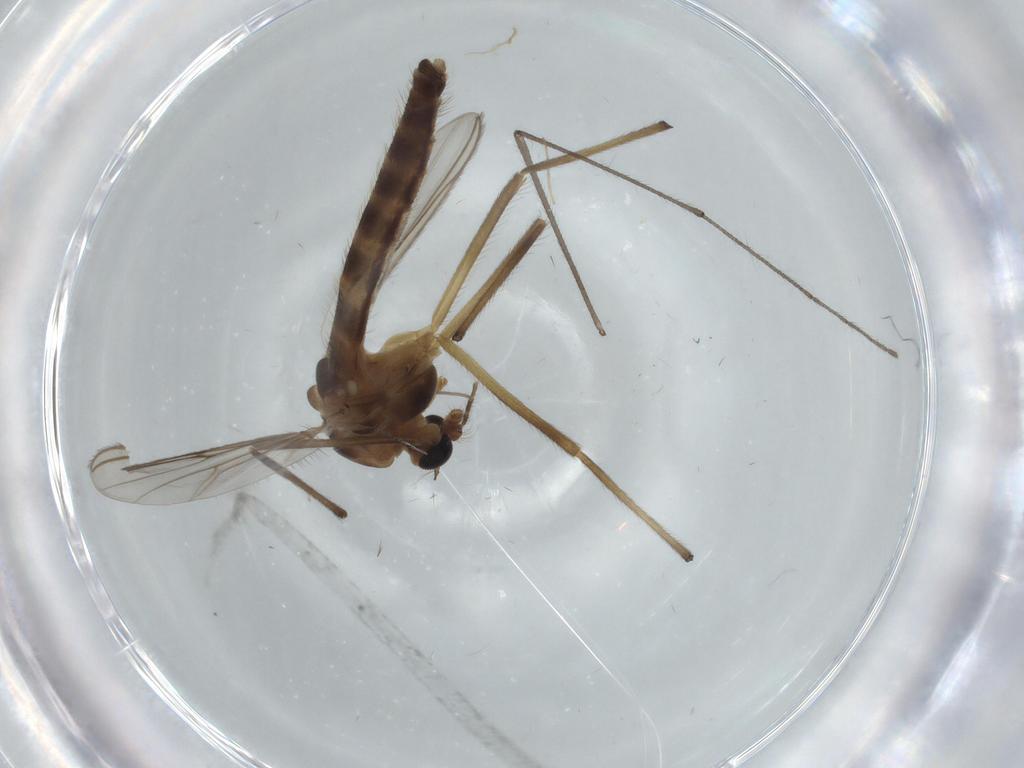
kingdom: Animalia
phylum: Arthropoda
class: Insecta
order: Diptera
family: Chironomidae
